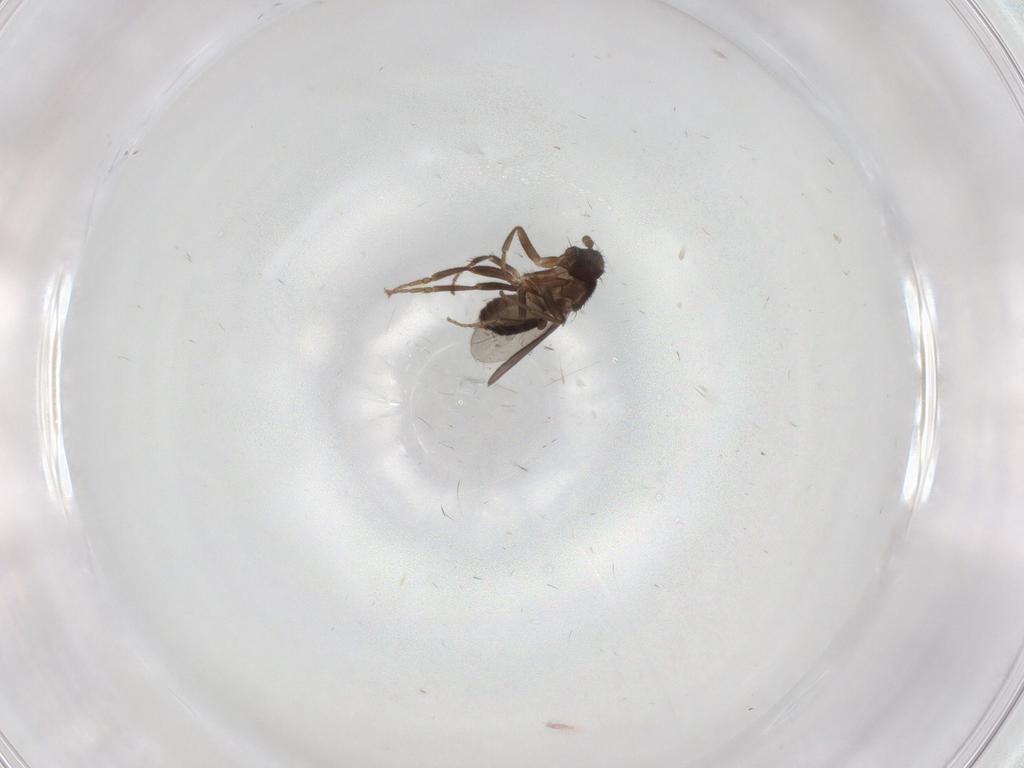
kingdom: Animalia
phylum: Arthropoda
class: Insecta
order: Diptera
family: Sphaeroceridae
